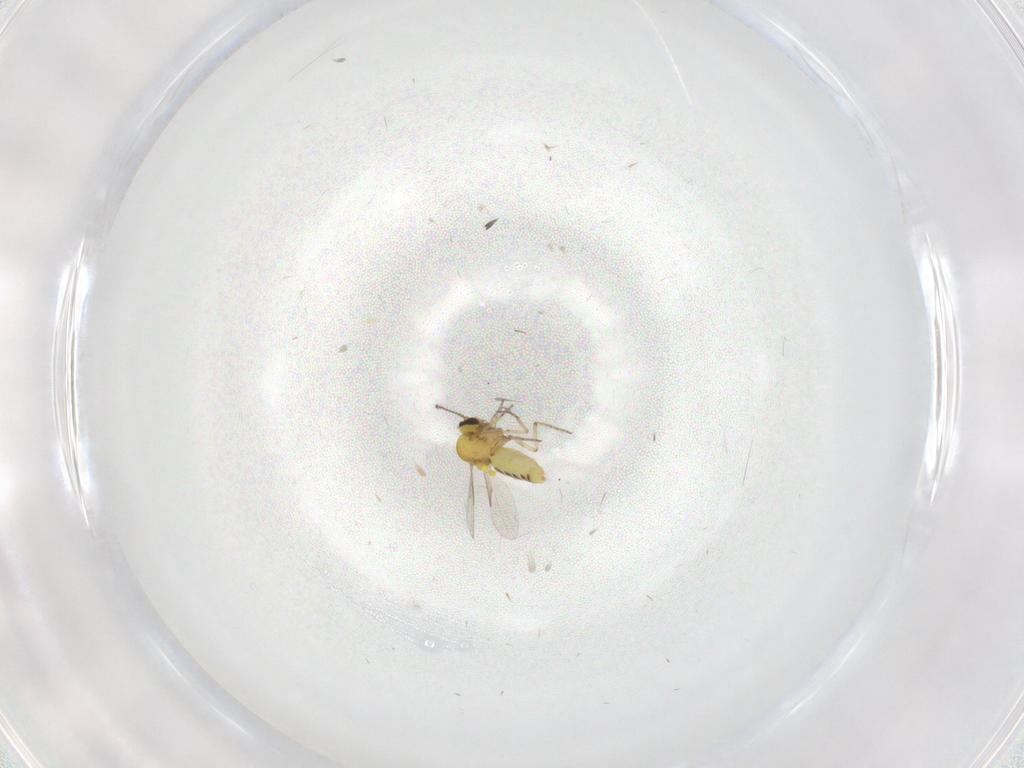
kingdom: Animalia
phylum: Arthropoda
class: Insecta
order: Diptera
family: Ceratopogonidae
